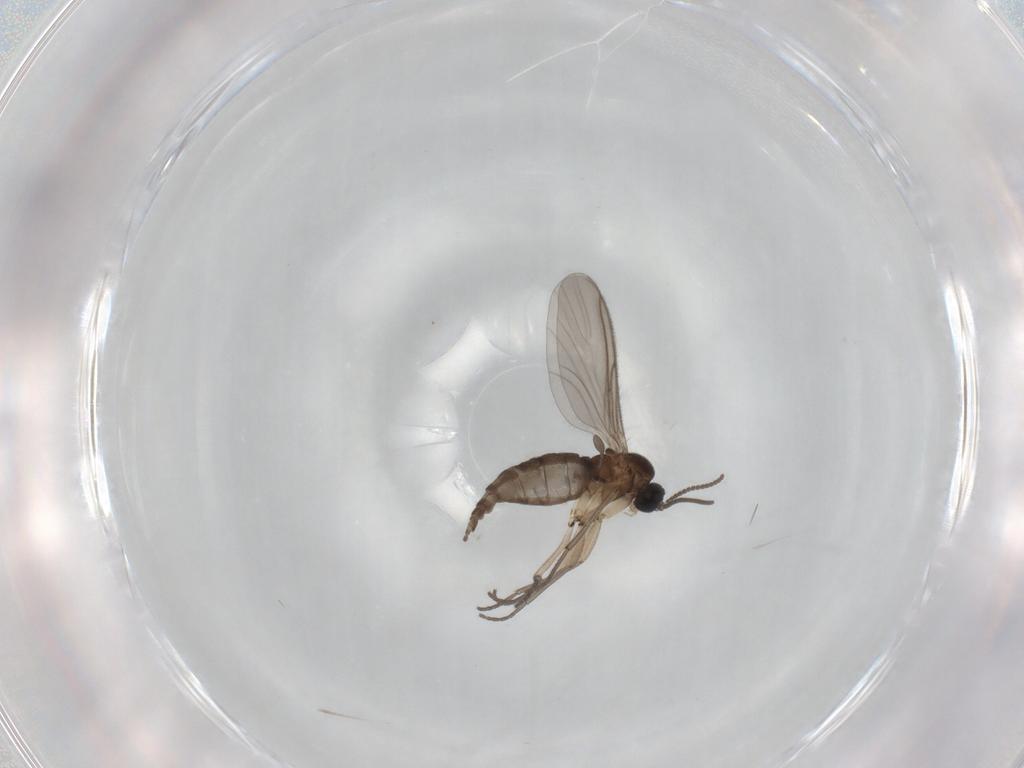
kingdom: Animalia
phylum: Arthropoda
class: Insecta
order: Diptera
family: Sciaridae
